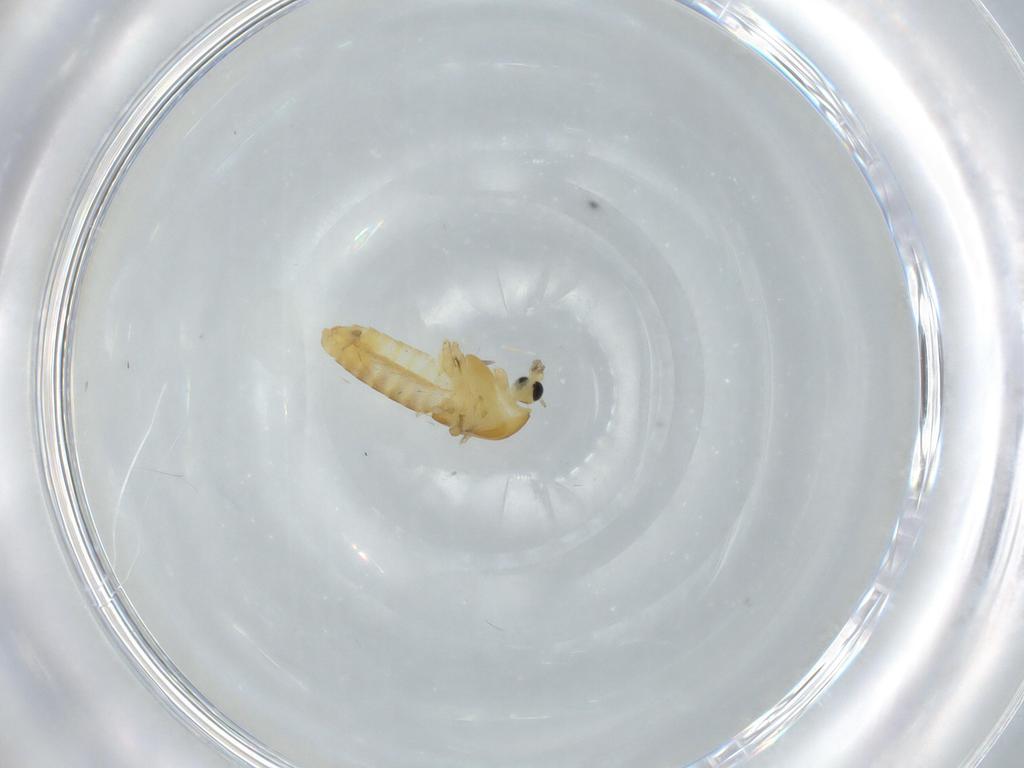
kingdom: Animalia
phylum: Arthropoda
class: Insecta
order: Diptera
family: Chironomidae
